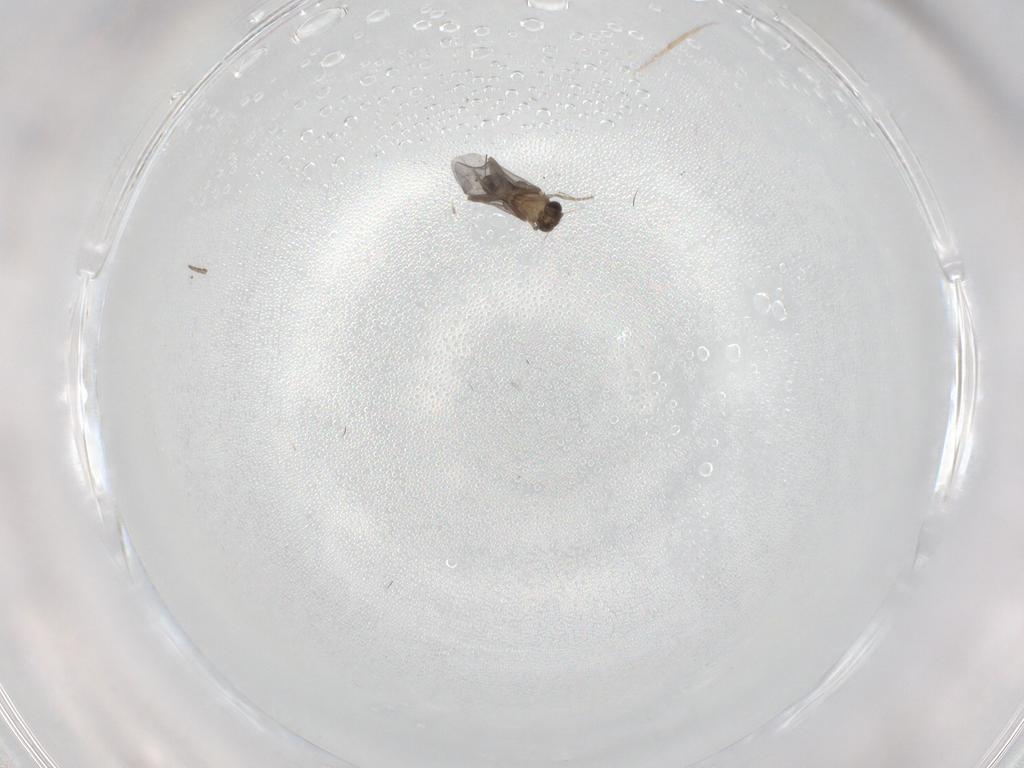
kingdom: Animalia
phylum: Arthropoda
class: Insecta
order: Diptera
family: Phoridae
